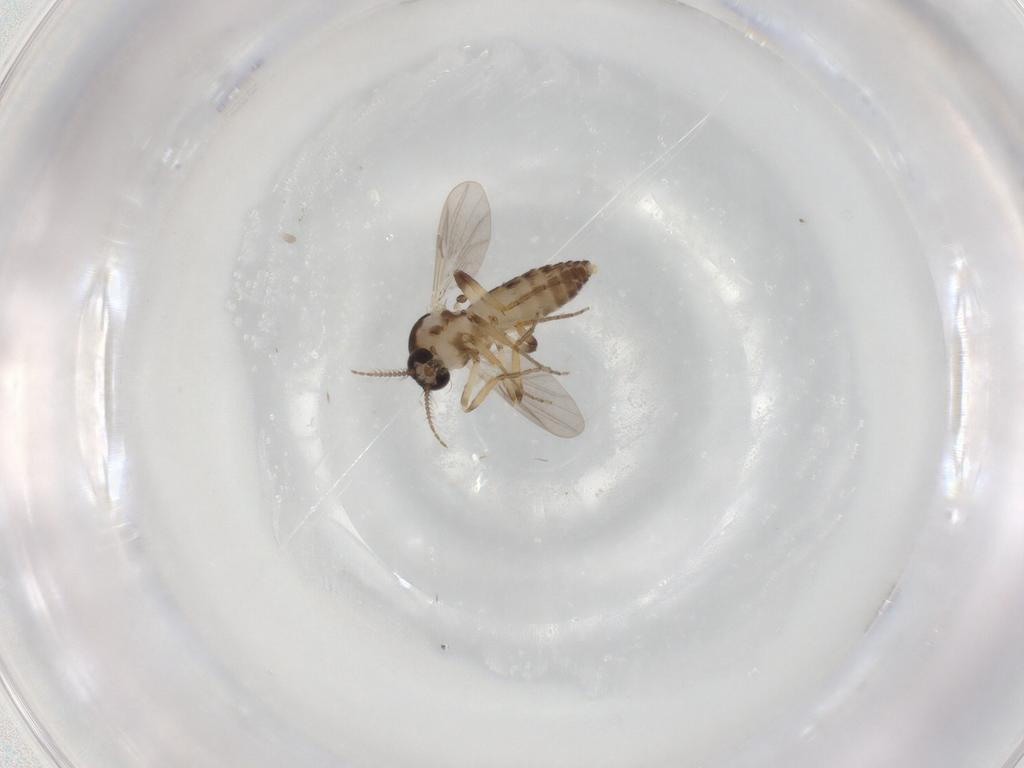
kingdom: Animalia
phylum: Arthropoda
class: Insecta
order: Diptera
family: Ceratopogonidae
